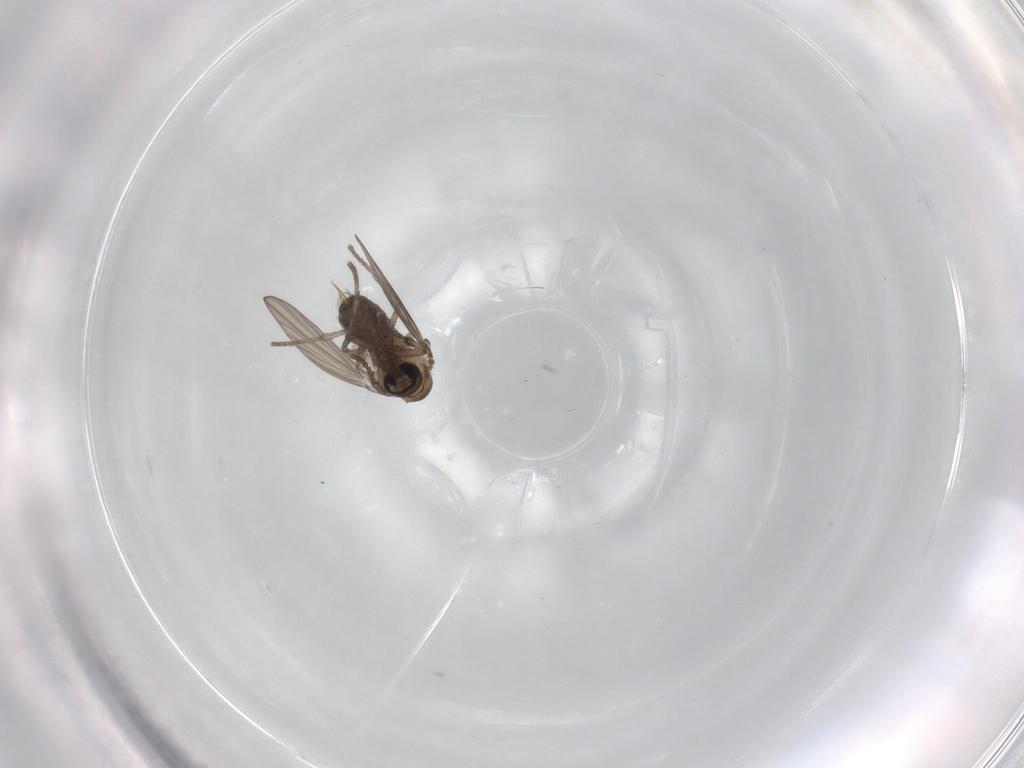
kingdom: Animalia
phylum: Arthropoda
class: Insecta
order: Diptera
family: Psychodidae
